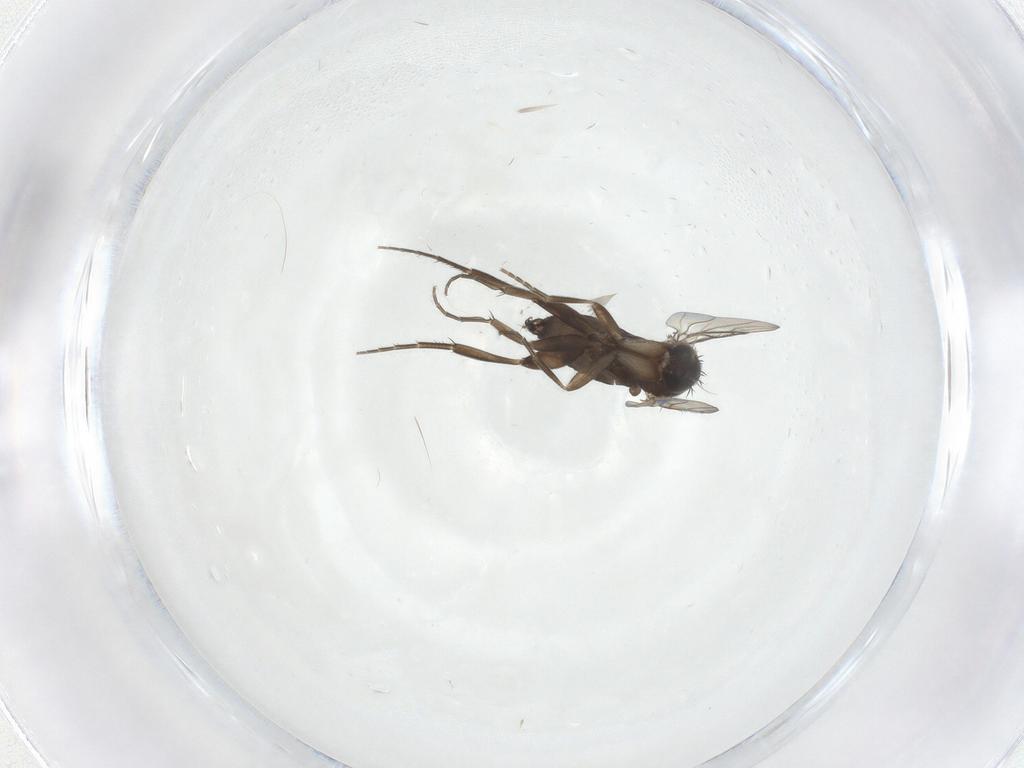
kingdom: Animalia
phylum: Arthropoda
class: Insecta
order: Diptera
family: Phoridae
